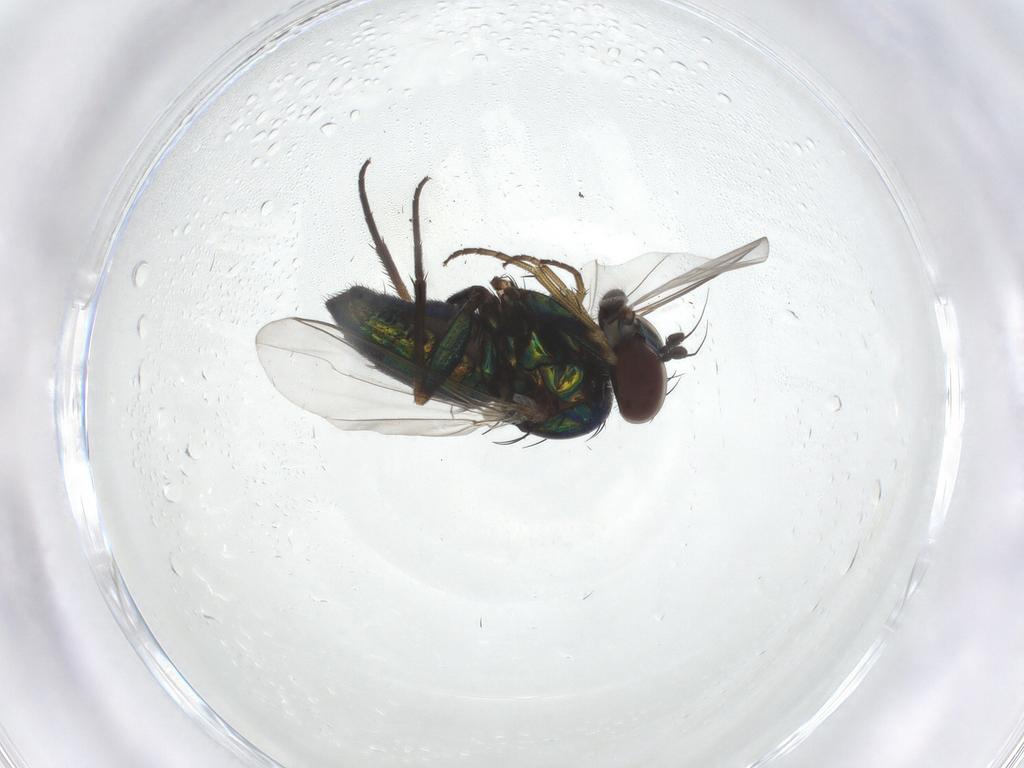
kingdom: Animalia
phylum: Arthropoda
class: Insecta
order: Diptera
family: Dolichopodidae
